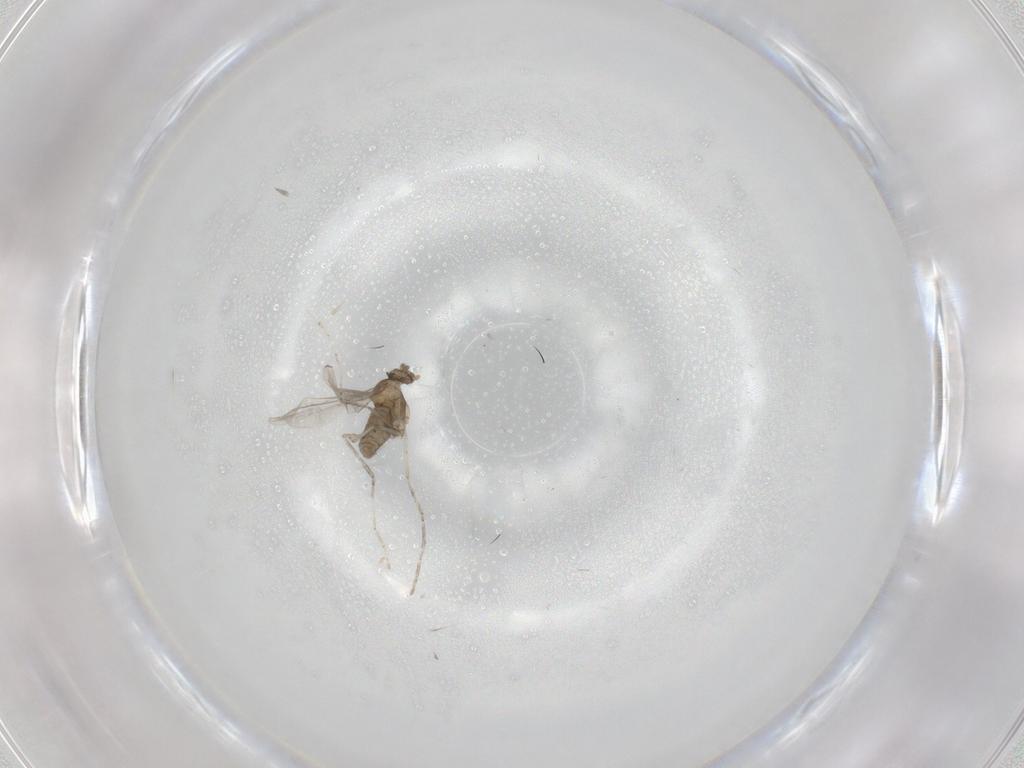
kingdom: Animalia
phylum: Arthropoda
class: Insecta
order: Diptera
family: Cecidomyiidae
